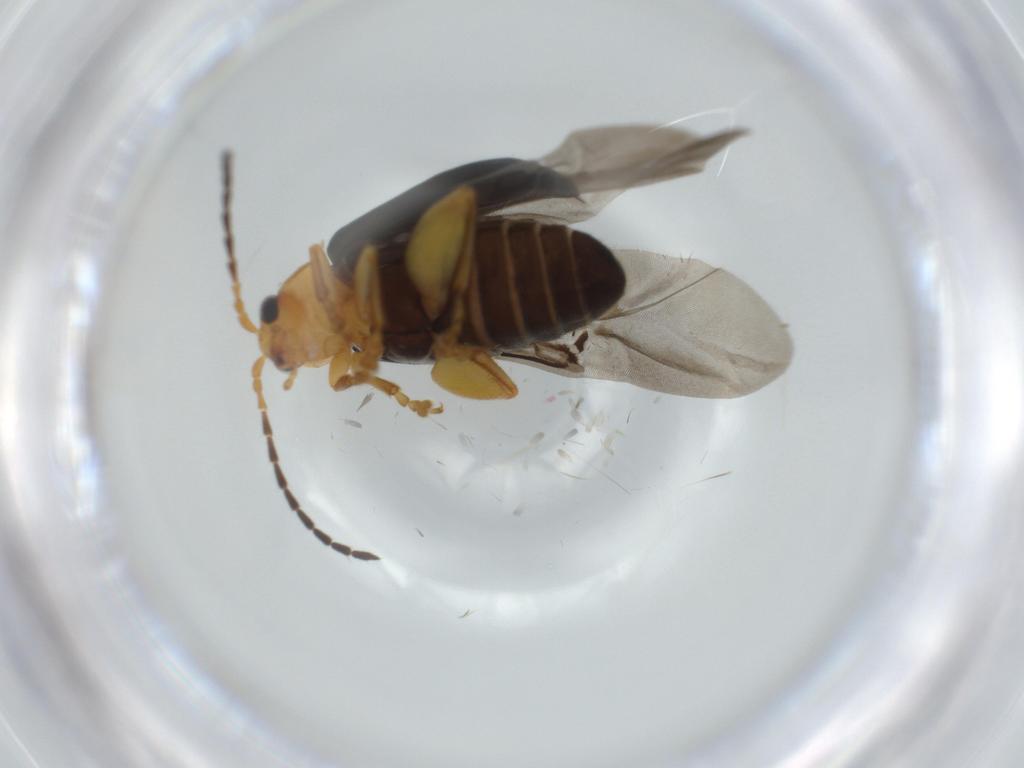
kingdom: Animalia
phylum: Arthropoda
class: Insecta
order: Coleoptera
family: Chrysomelidae
